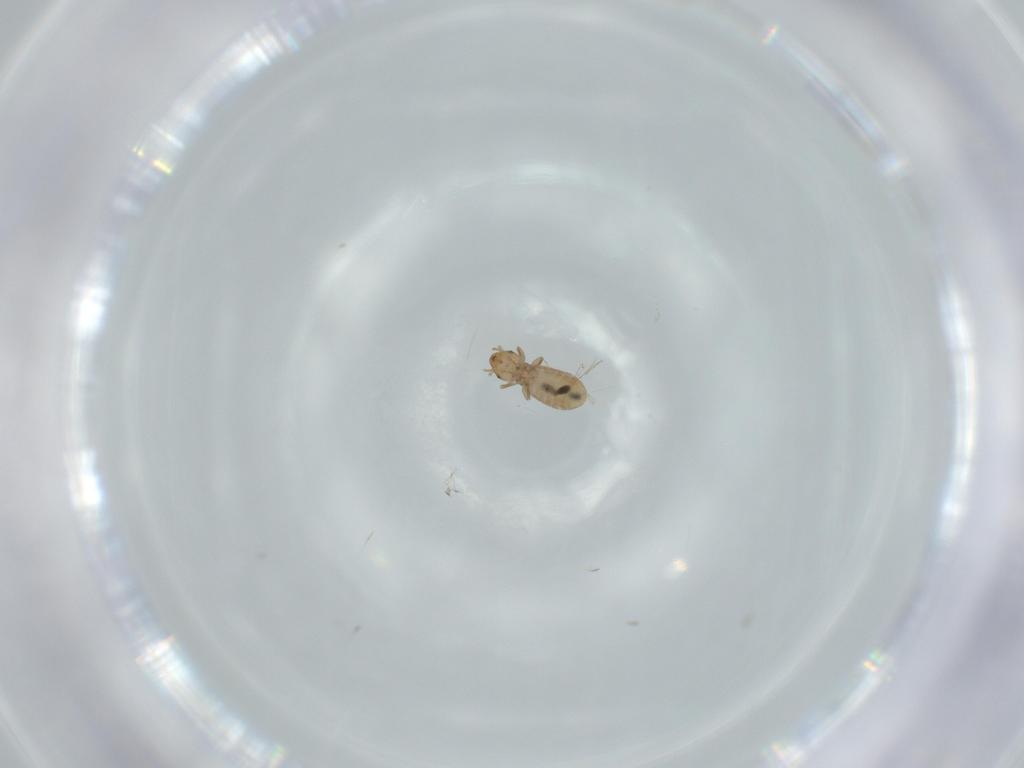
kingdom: Animalia
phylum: Arthropoda
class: Insecta
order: Psocodea
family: Liposcelididae
